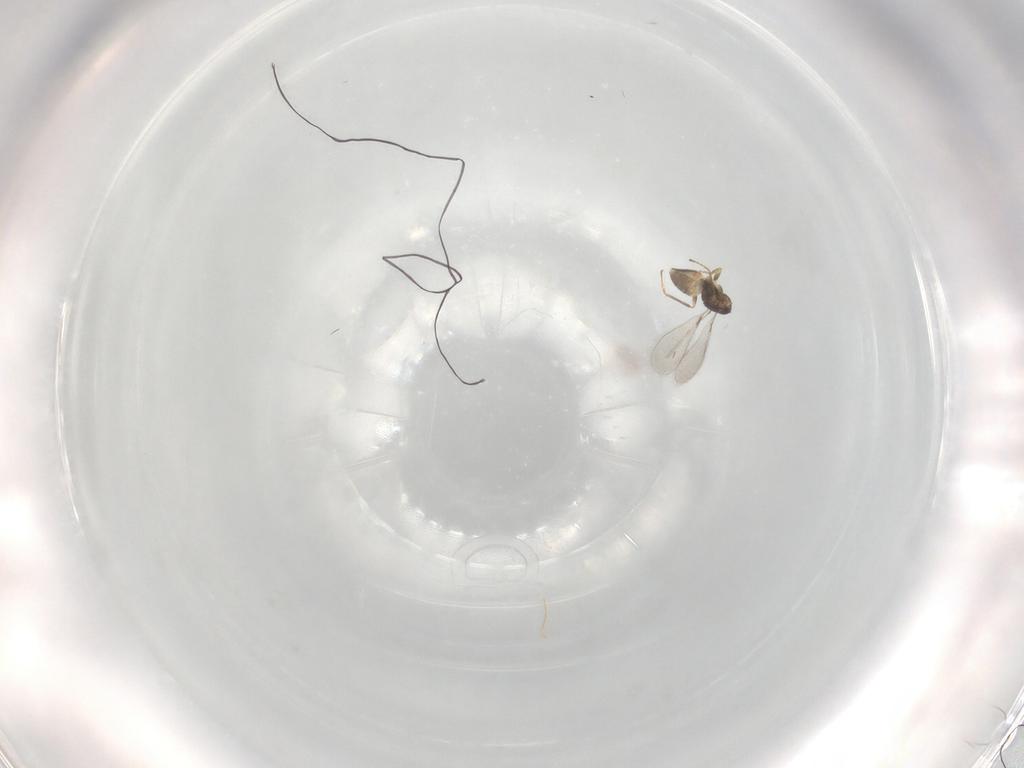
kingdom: Animalia
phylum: Arthropoda
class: Insecta
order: Hymenoptera
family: Mymaridae
